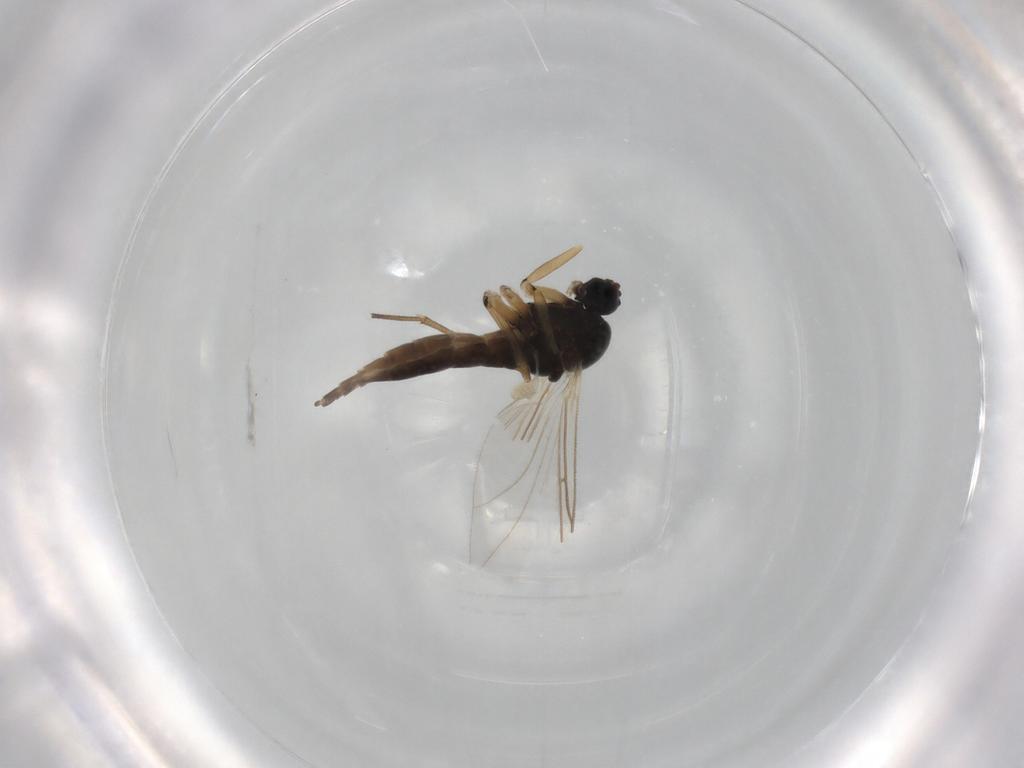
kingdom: Animalia
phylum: Arthropoda
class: Insecta
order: Diptera
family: Sciaridae
